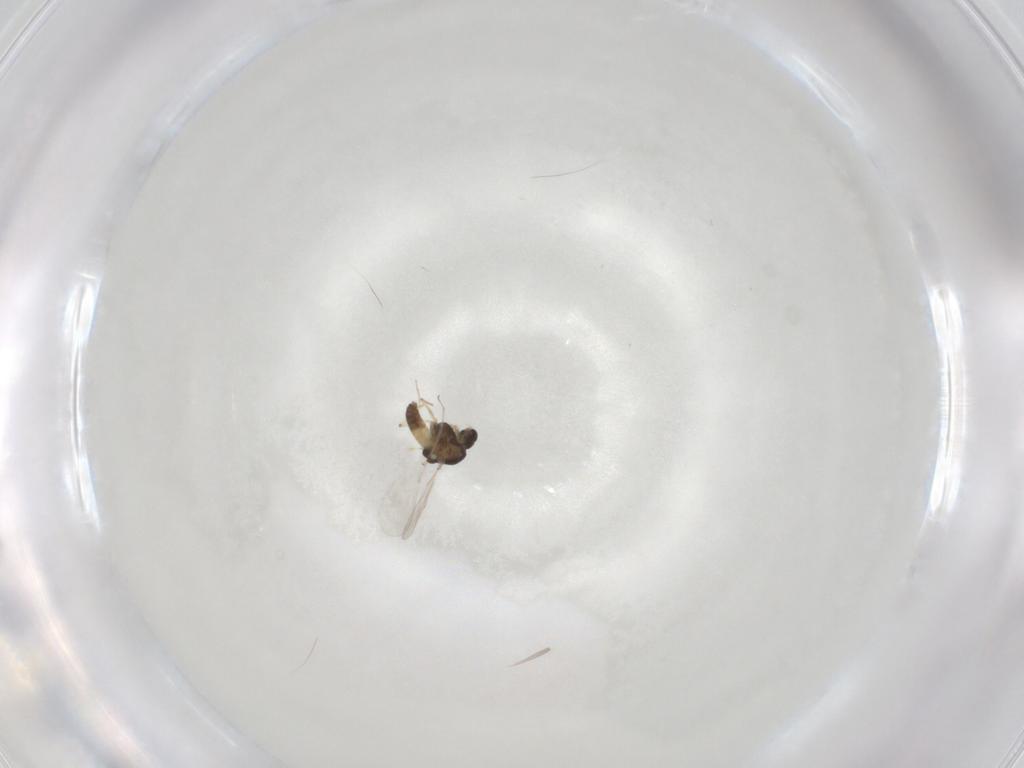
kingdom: Animalia
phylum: Arthropoda
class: Insecta
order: Diptera
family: Chironomidae
